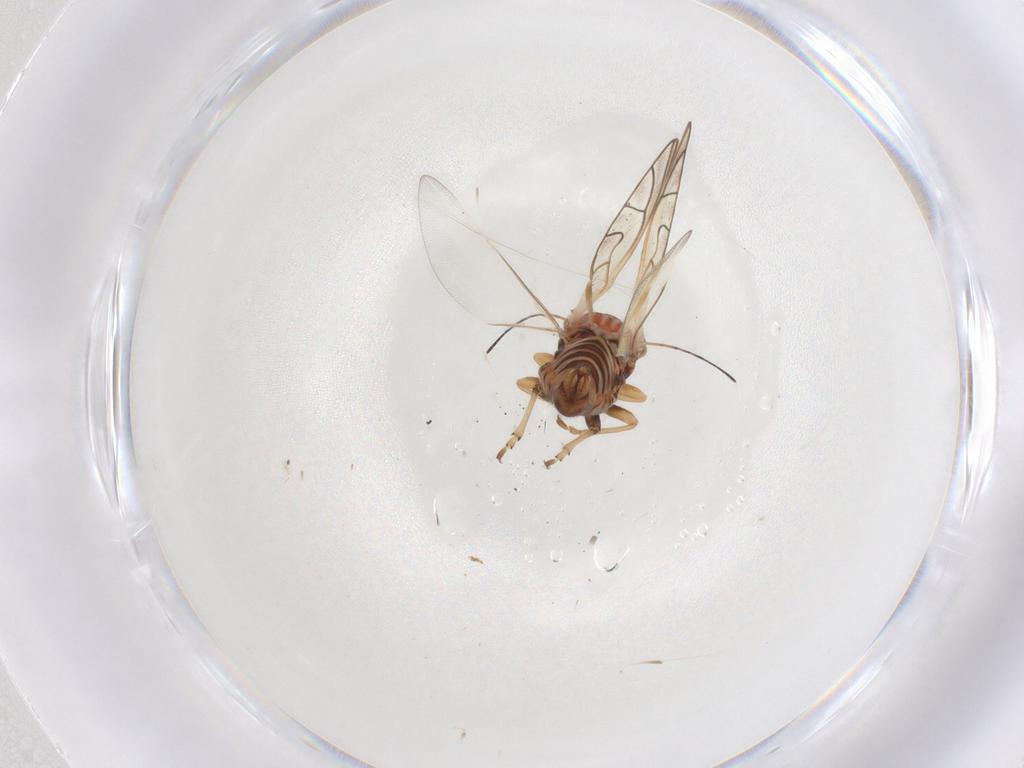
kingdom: Animalia
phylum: Arthropoda
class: Insecta
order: Hemiptera
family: Psyllidae
